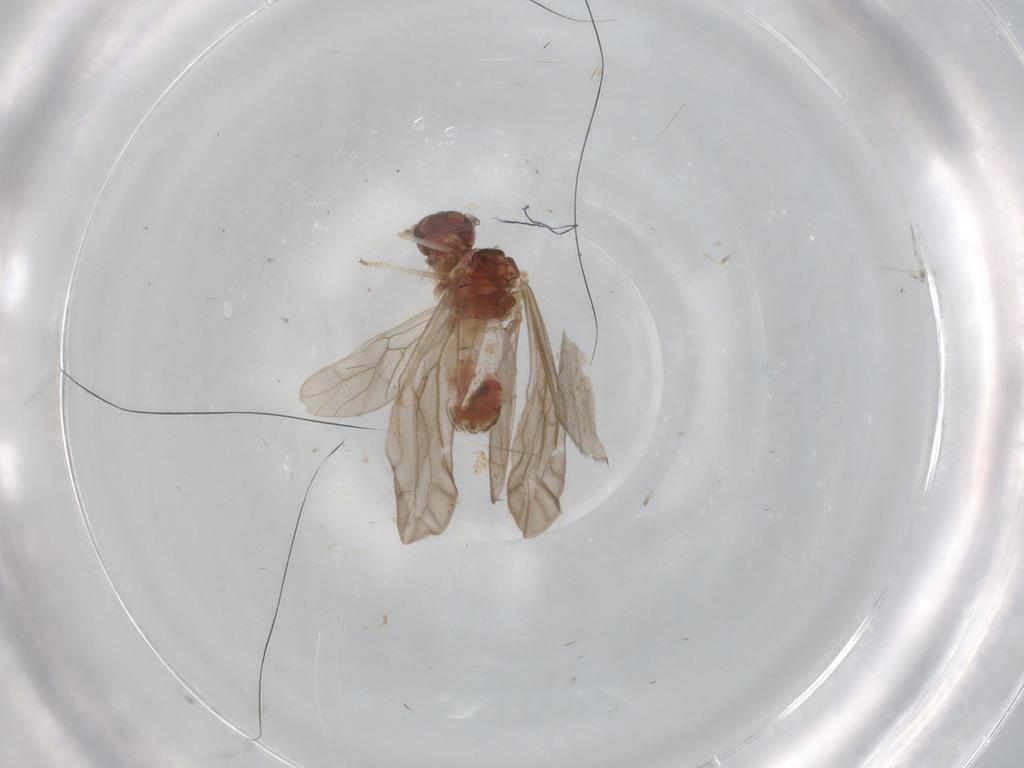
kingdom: Animalia
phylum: Arthropoda
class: Insecta
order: Psocodea
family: Caeciliusidae
